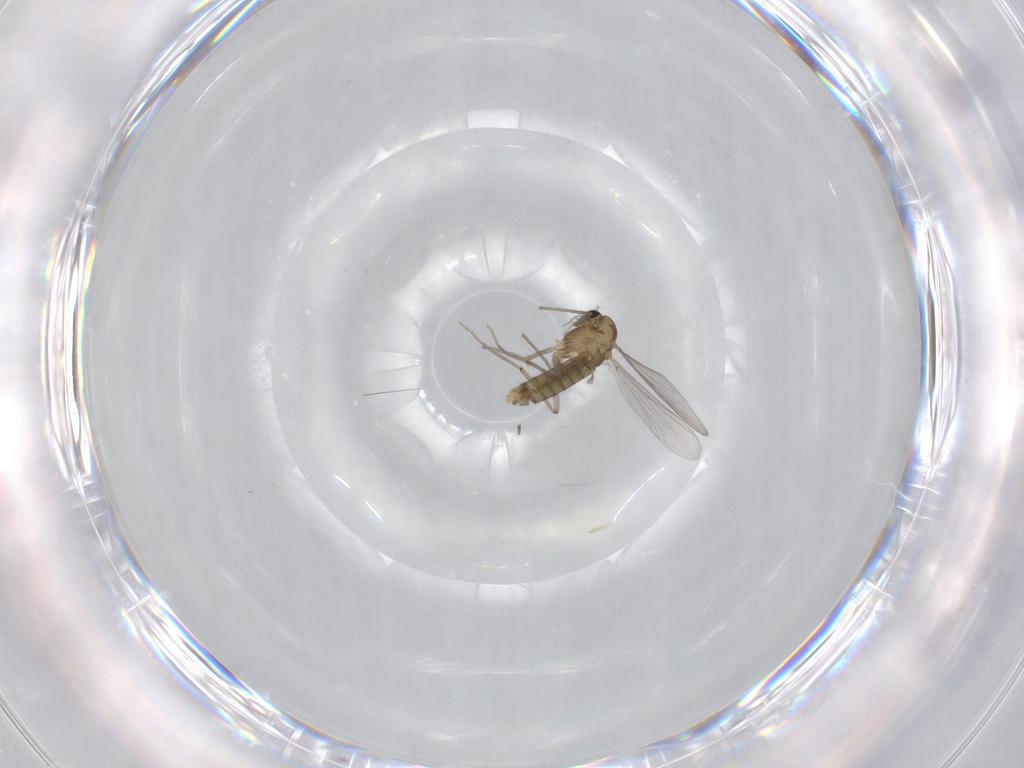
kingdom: Animalia
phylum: Arthropoda
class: Insecta
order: Diptera
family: Chironomidae
